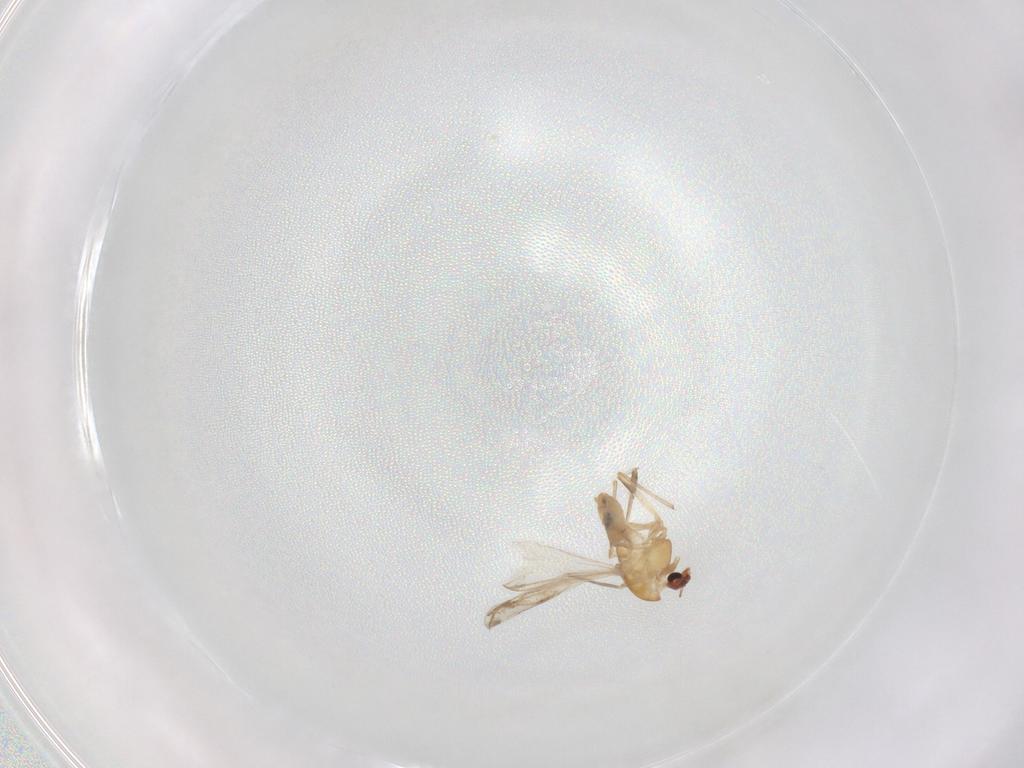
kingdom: Animalia
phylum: Arthropoda
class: Insecta
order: Diptera
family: Chironomidae
